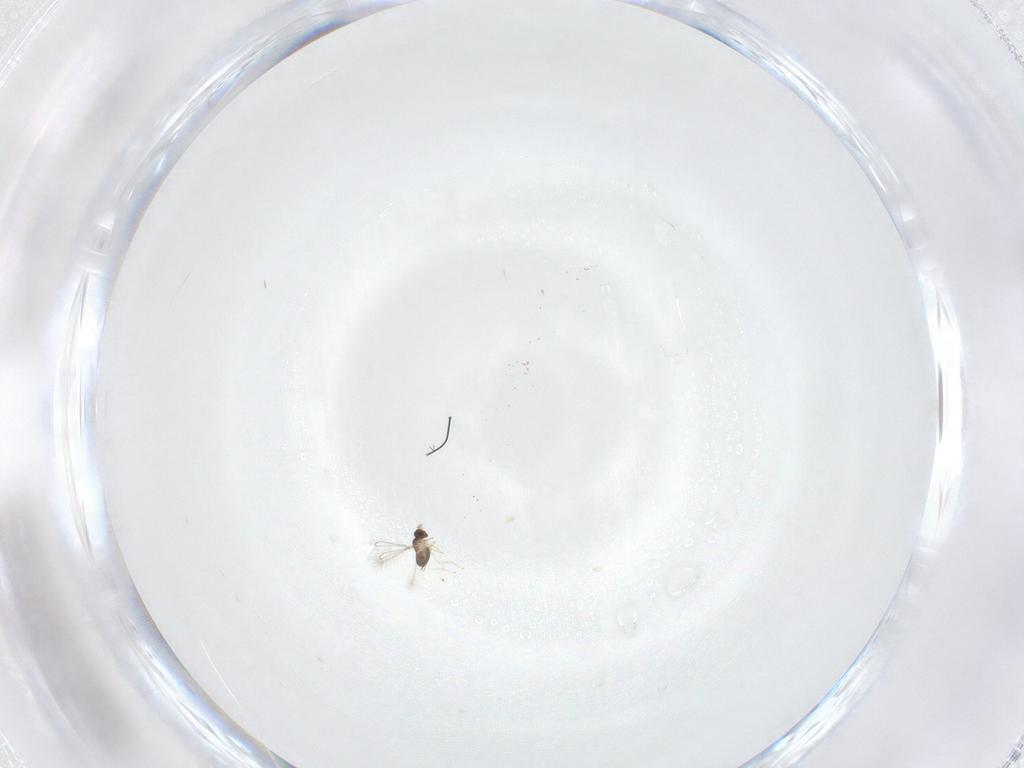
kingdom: Animalia
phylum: Arthropoda
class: Insecta
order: Hymenoptera
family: Mymaridae
